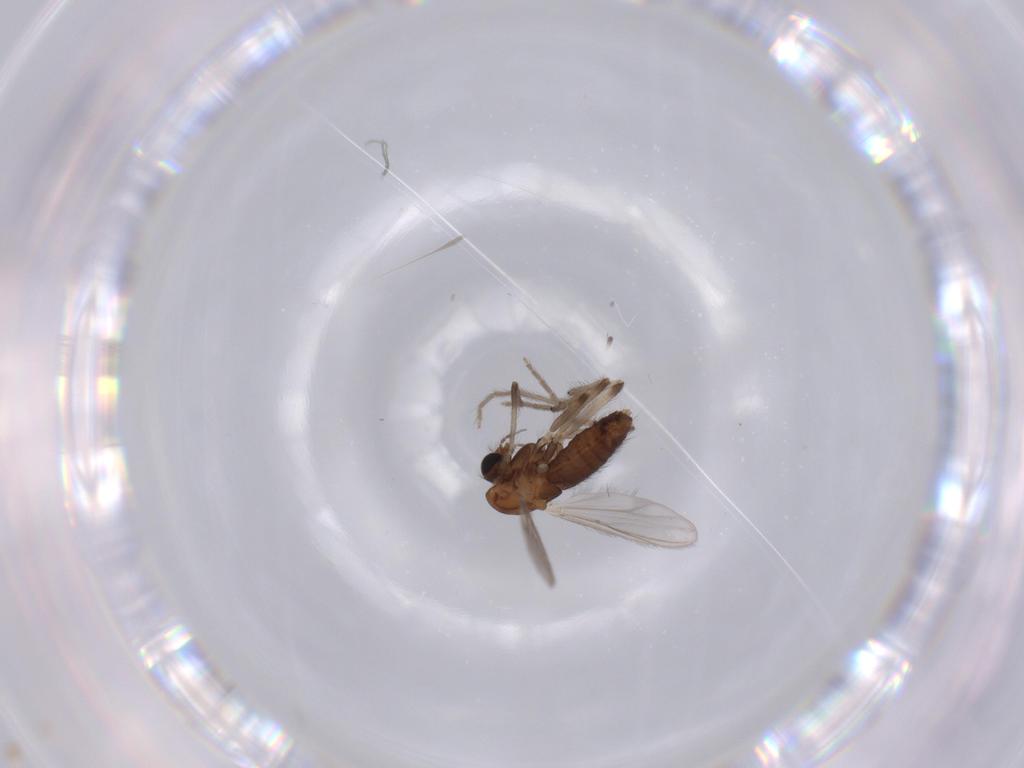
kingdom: Animalia
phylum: Arthropoda
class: Insecta
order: Diptera
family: Chironomidae
